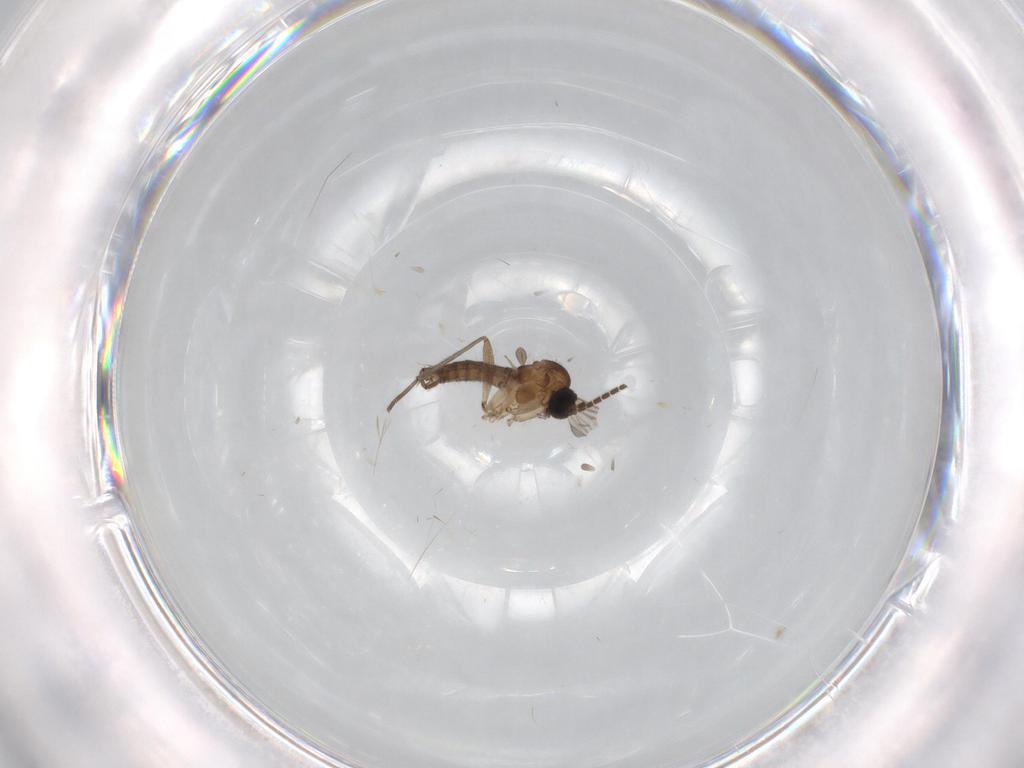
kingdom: Animalia
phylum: Arthropoda
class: Insecta
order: Diptera
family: Sciaridae
